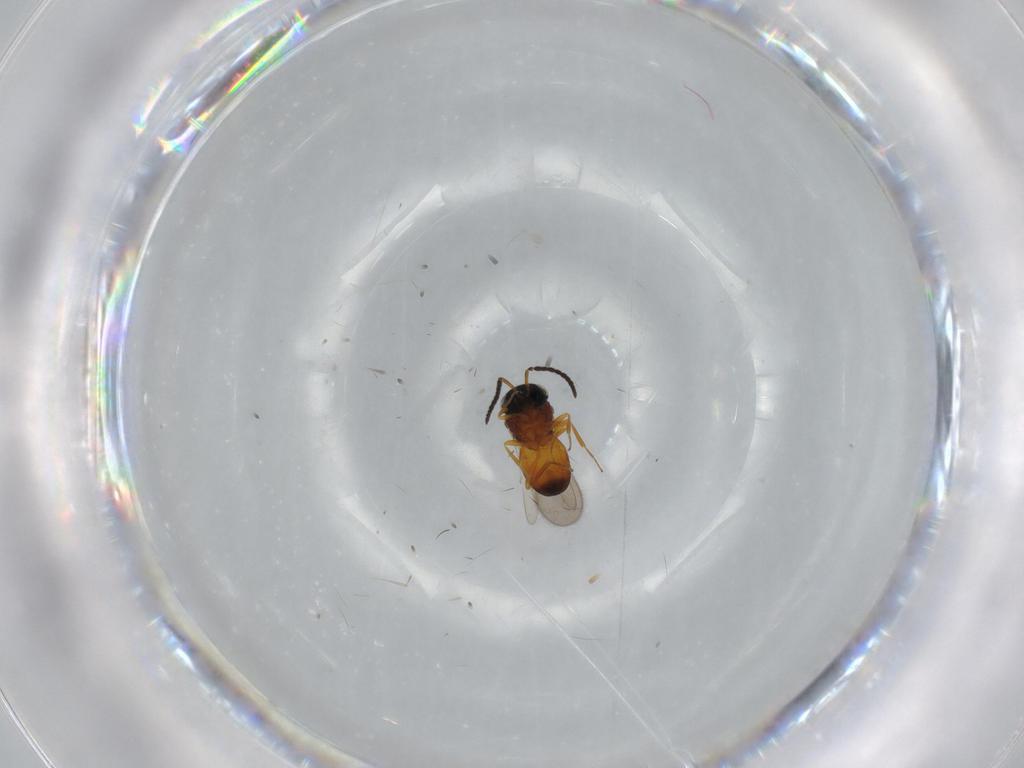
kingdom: Animalia
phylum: Arthropoda
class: Insecta
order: Hymenoptera
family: Scelionidae
